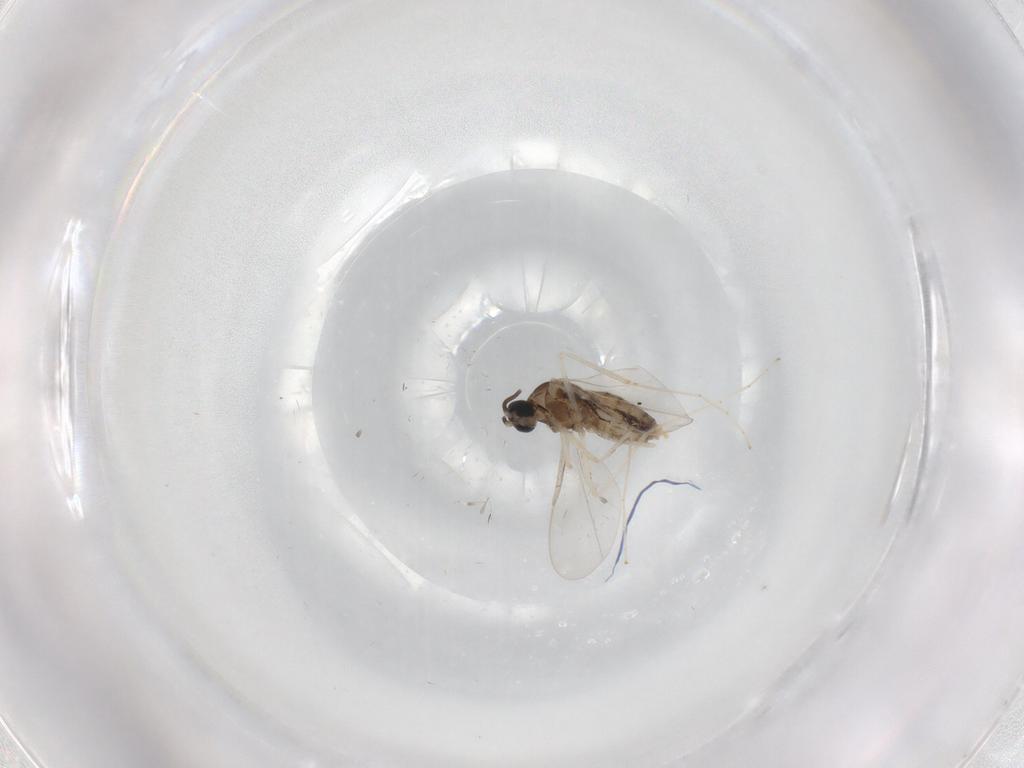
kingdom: Animalia
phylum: Arthropoda
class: Insecta
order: Diptera
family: Cecidomyiidae
